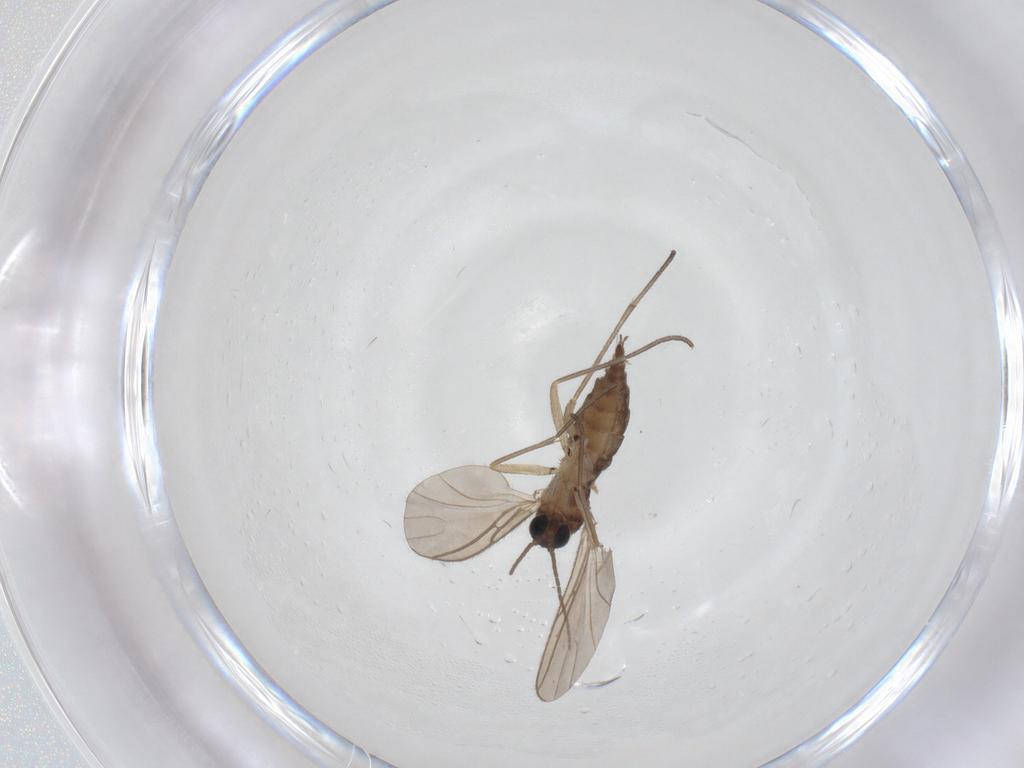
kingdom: Animalia
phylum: Arthropoda
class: Insecta
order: Diptera
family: Sciaridae
